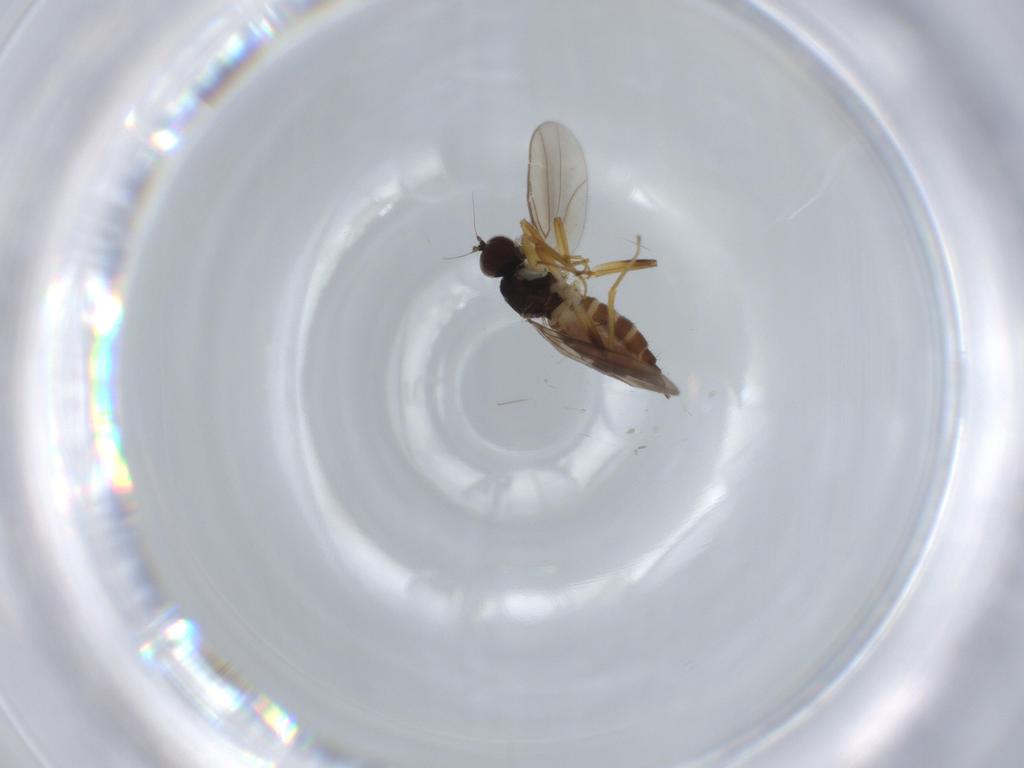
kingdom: Animalia
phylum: Arthropoda
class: Insecta
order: Diptera
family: Hybotidae
